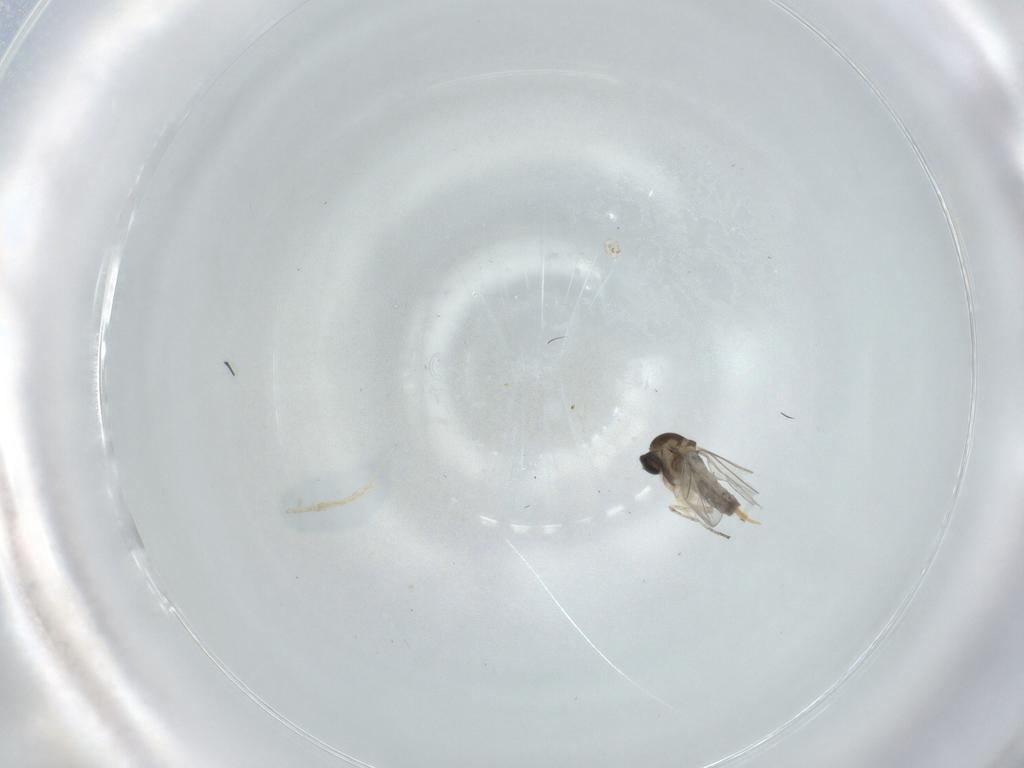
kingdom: Animalia
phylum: Arthropoda
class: Insecta
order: Diptera
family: Cecidomyiidae
